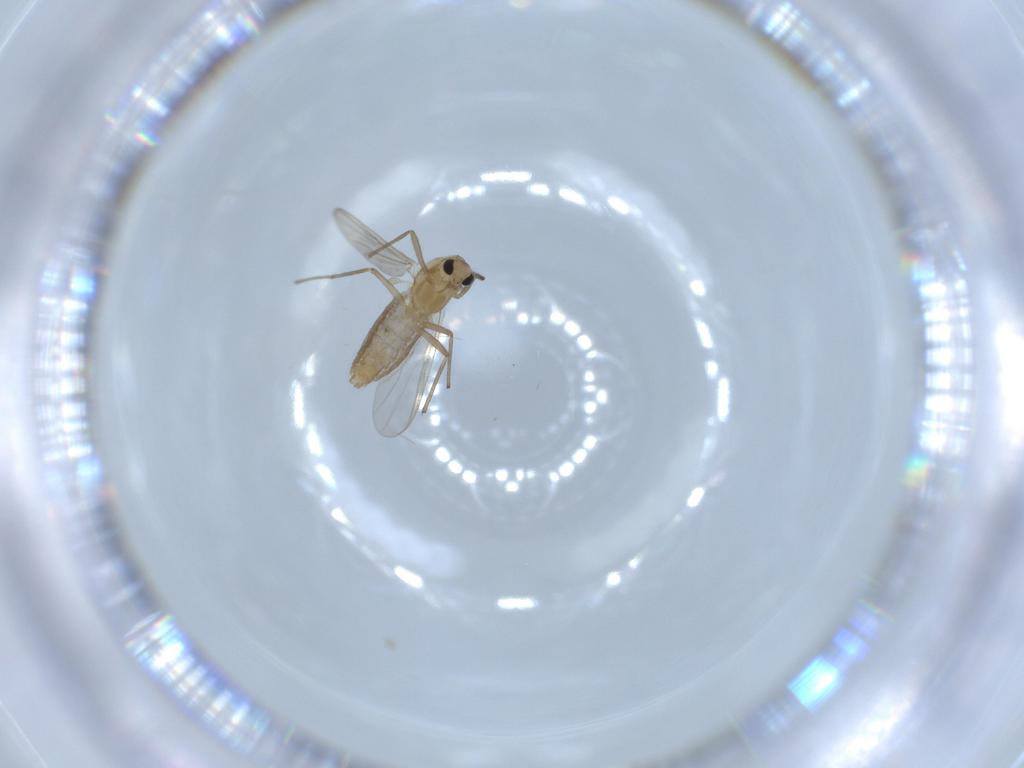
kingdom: Animalia
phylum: Arthropoda
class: Insecta
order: Diptera
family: Chironomidae
